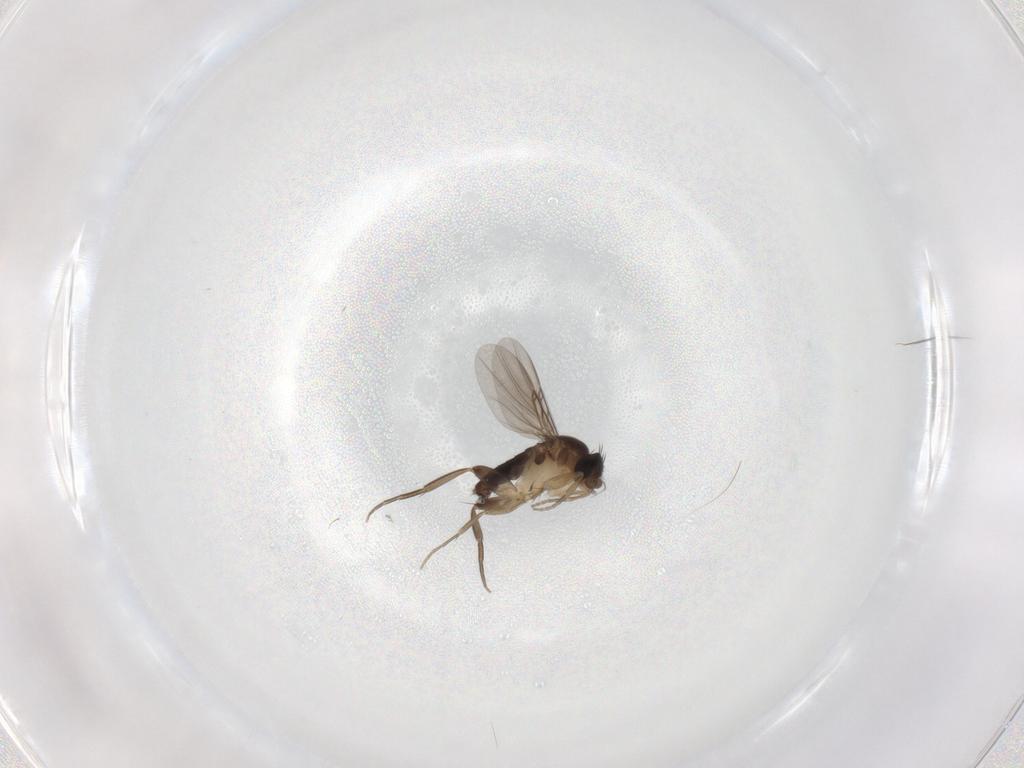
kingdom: Animalia
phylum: Arthropoda
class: Insecta
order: Diptera
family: Phoridae
